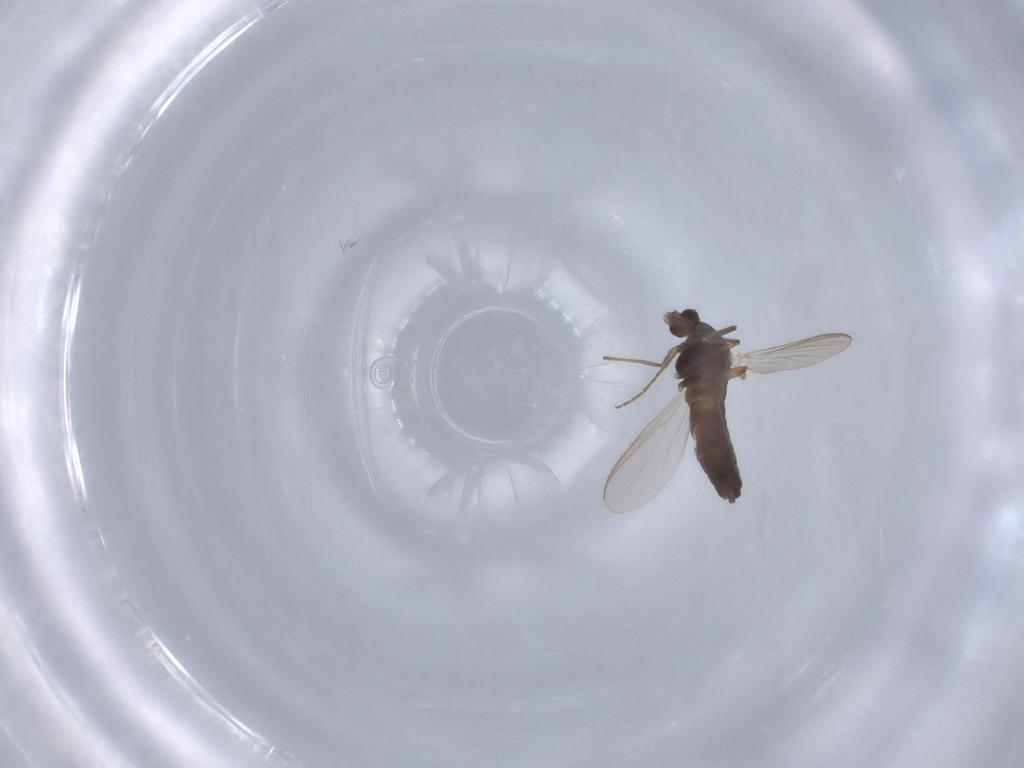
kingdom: Animalia
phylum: Arthropoda
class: Insecta
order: Diptera
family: Chironomidae
